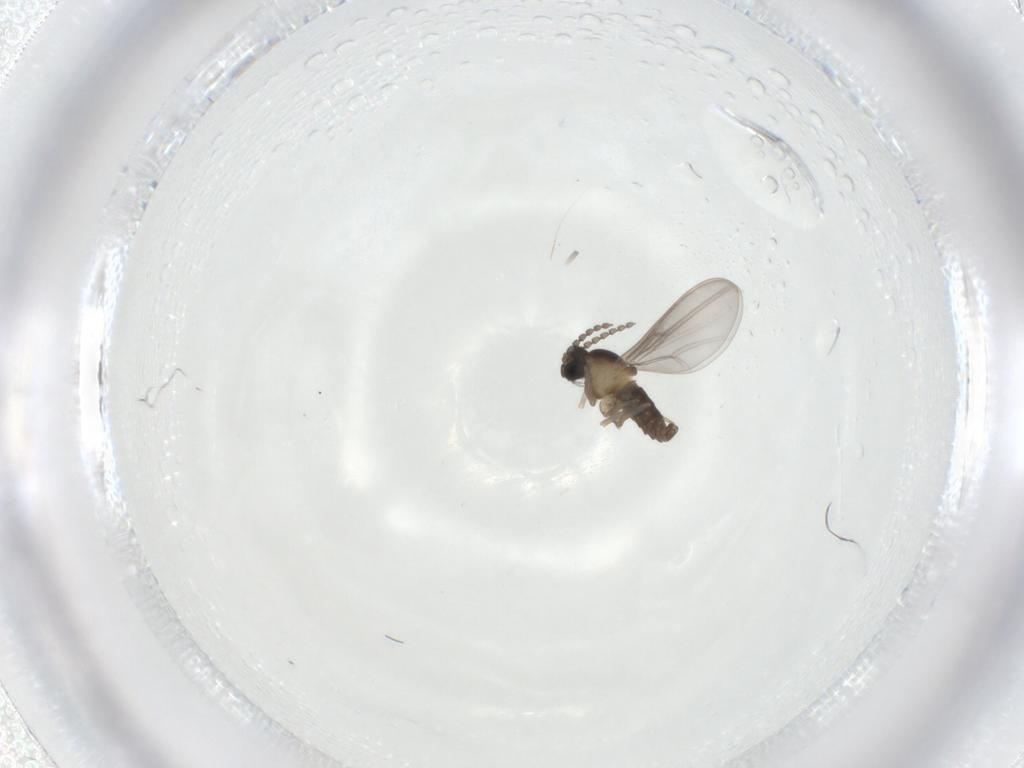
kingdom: Animalia
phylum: Arthropoda
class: Insecta
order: Diptera
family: Cecidomyiidae
